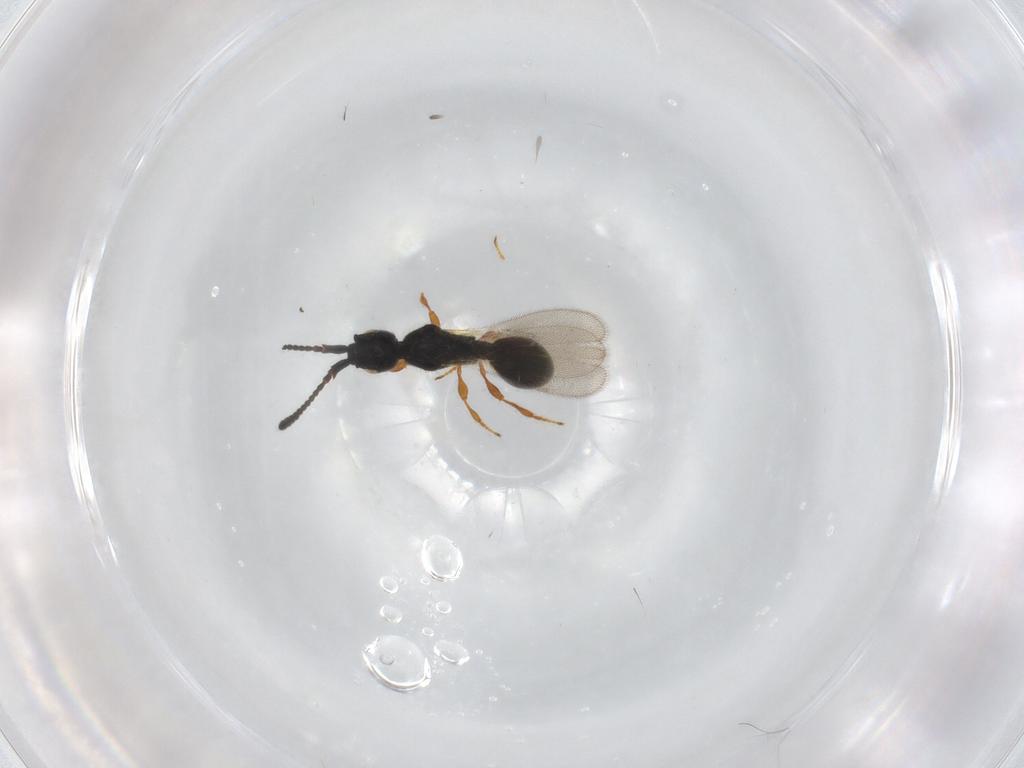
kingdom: Animalia
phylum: Arthropoda
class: Insecta
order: Hymenoptera
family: Diapriidae
